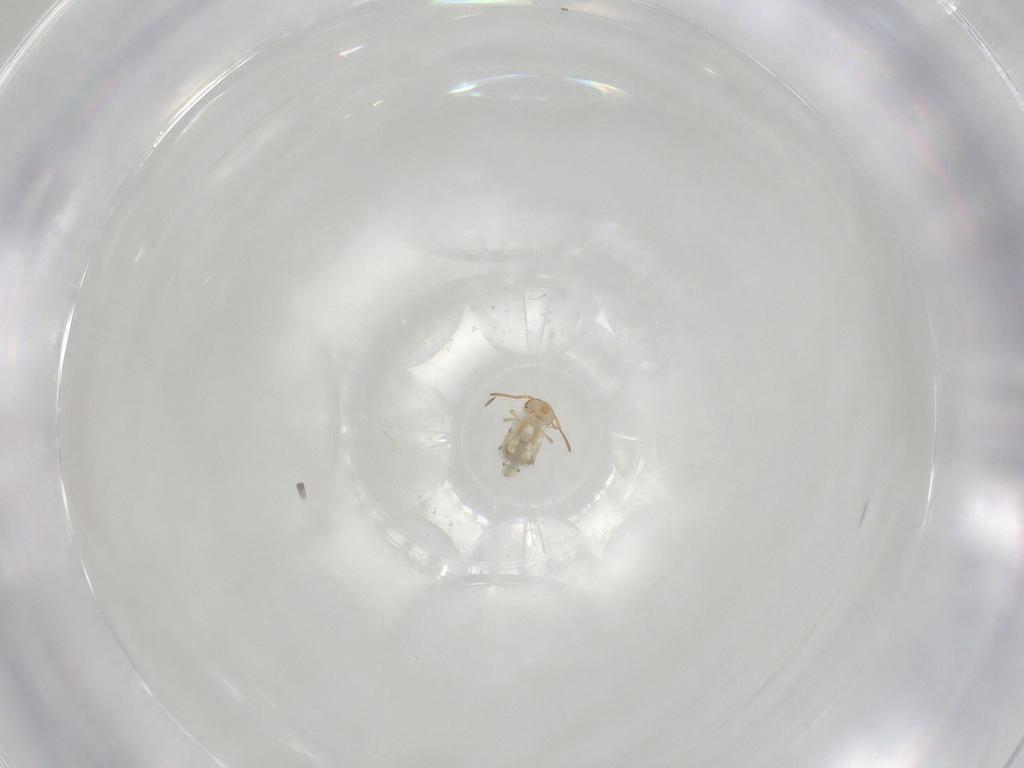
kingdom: Animalia
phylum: Arthropoda
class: Collembola
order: Symphypleona
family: Bourletiellidae
